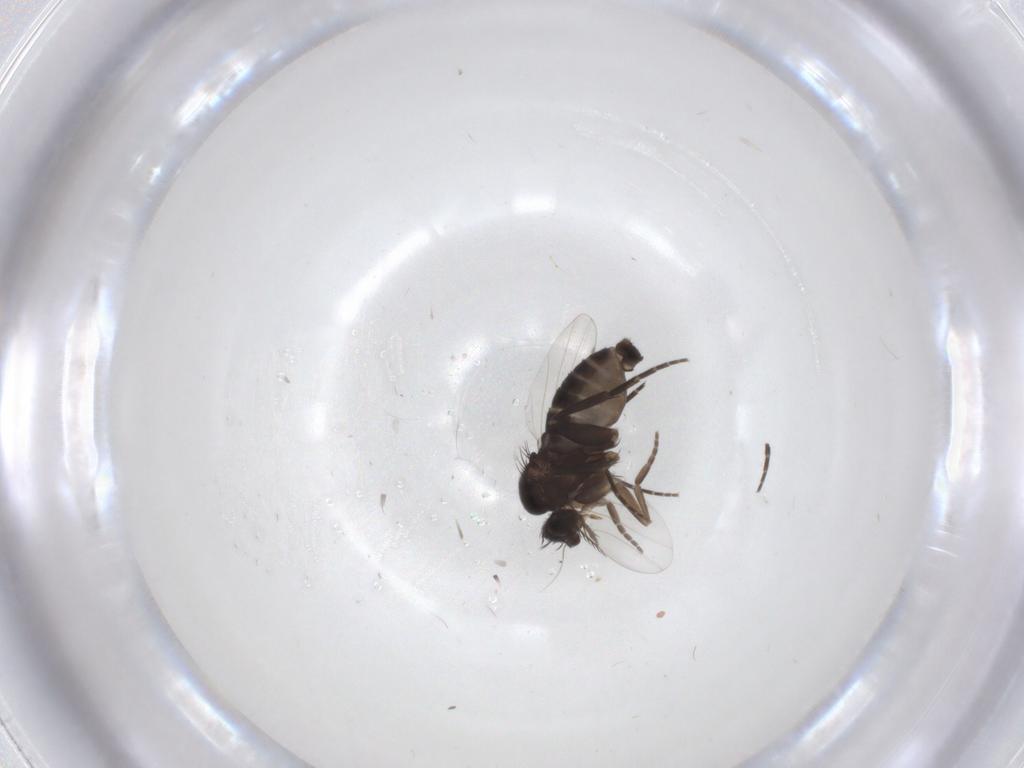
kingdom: Animalia
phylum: Arthropoda
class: Insecta
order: Diptera
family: Phoridae
